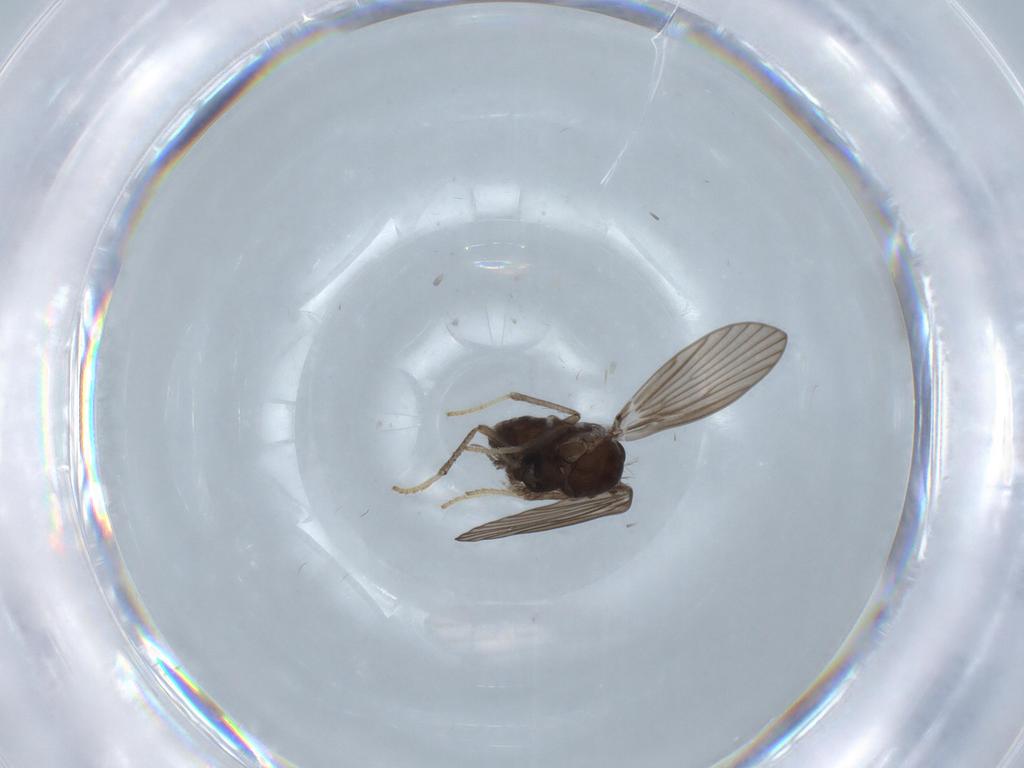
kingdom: Animalia
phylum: Arthropoda
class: Insecta
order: Diptera
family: Psychodidae
